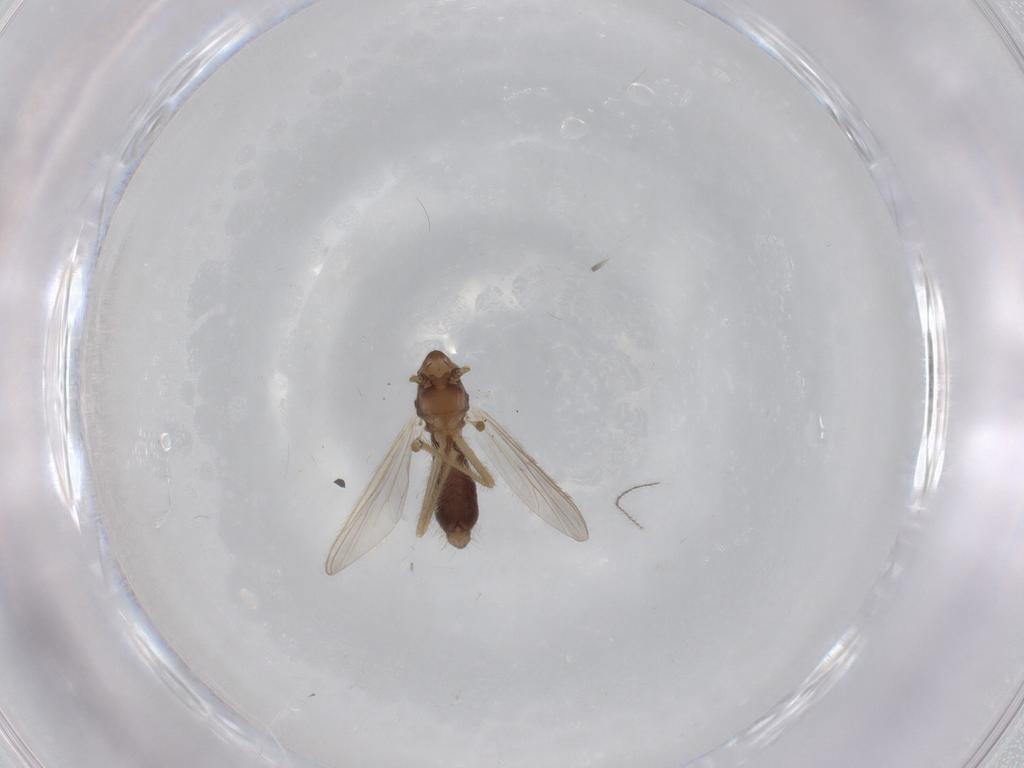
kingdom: Animalia
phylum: Arthropoda
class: Insecta
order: Diptera
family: Chironomidae
